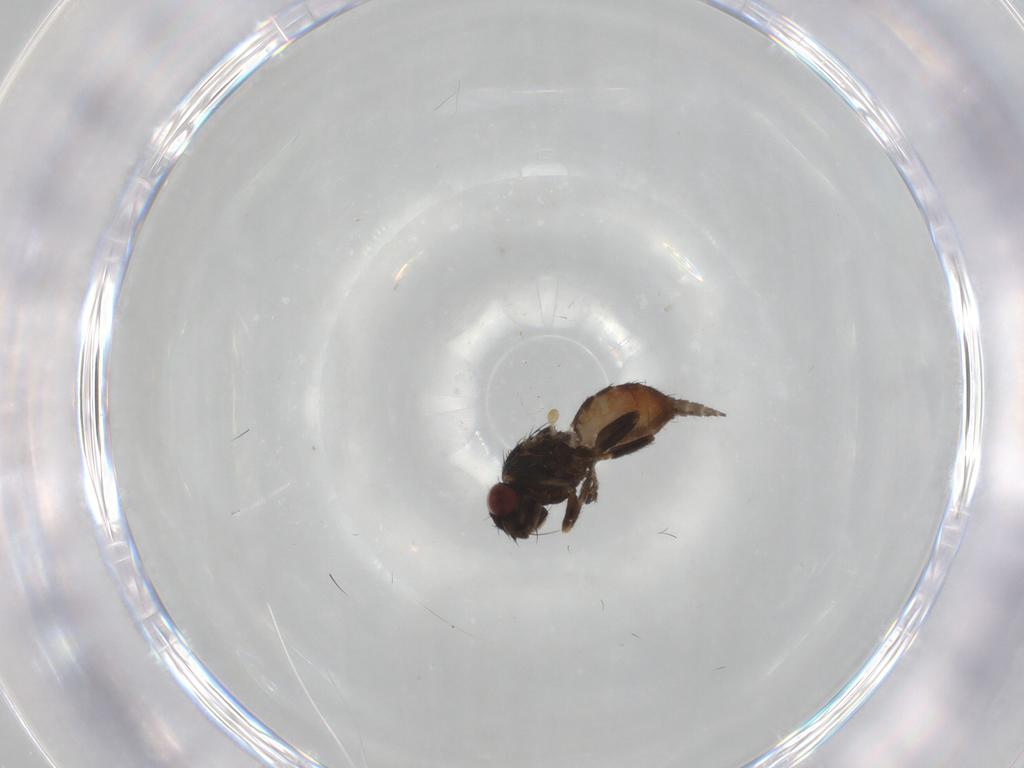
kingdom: Animalia
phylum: Arthropoda
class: Insecta
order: Diptera
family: Milichiidae
